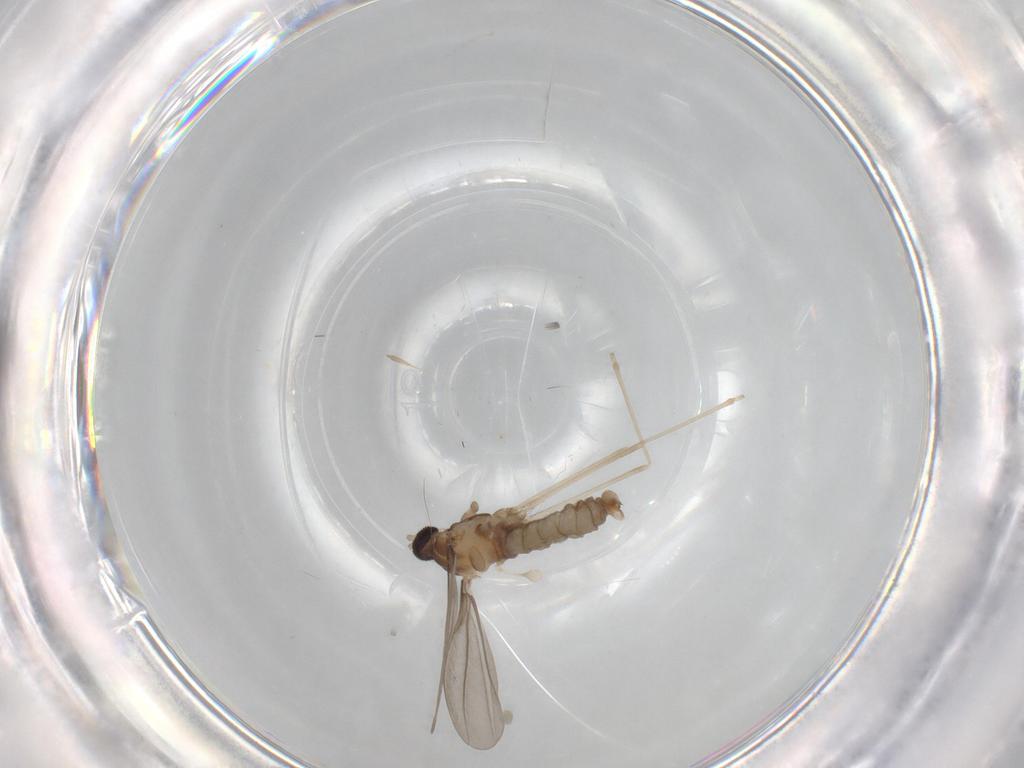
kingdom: Animalia
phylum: Arthropoda
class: Insecta
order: Diptera
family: Cecidomyiidae
